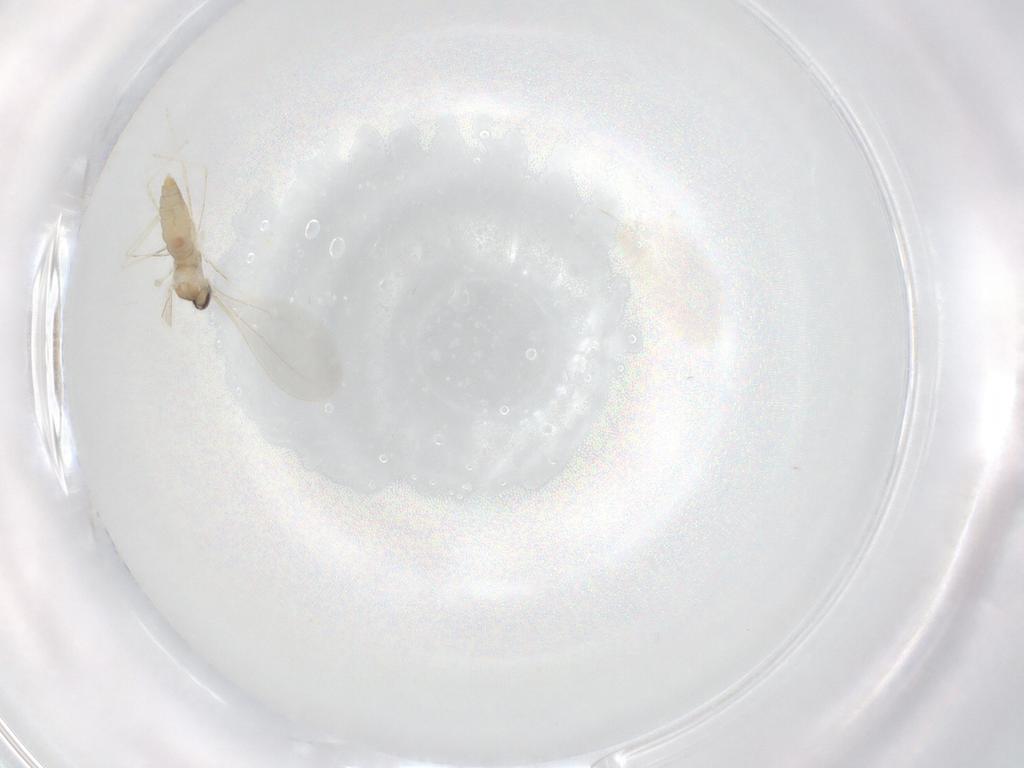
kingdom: Animalia
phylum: Arthropoda
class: Insecta
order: Diptera
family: Cecidomyiidae
